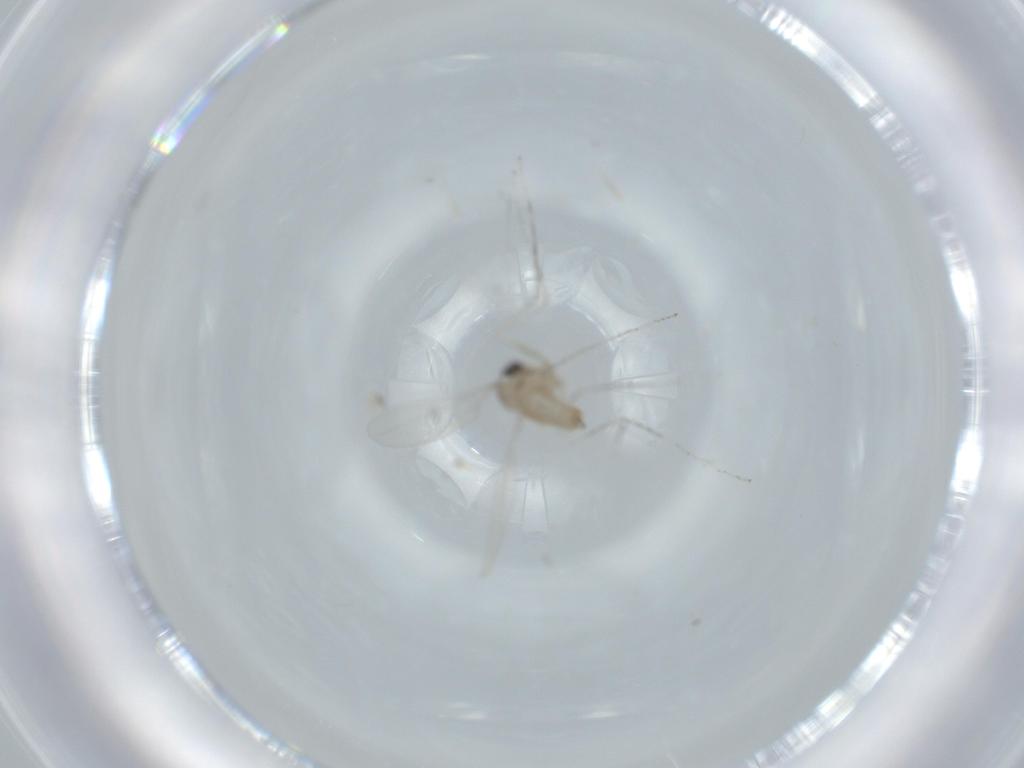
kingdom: Animalia
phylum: Arthropoda
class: Insecta
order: Diptera
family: Cecidomyiidae
